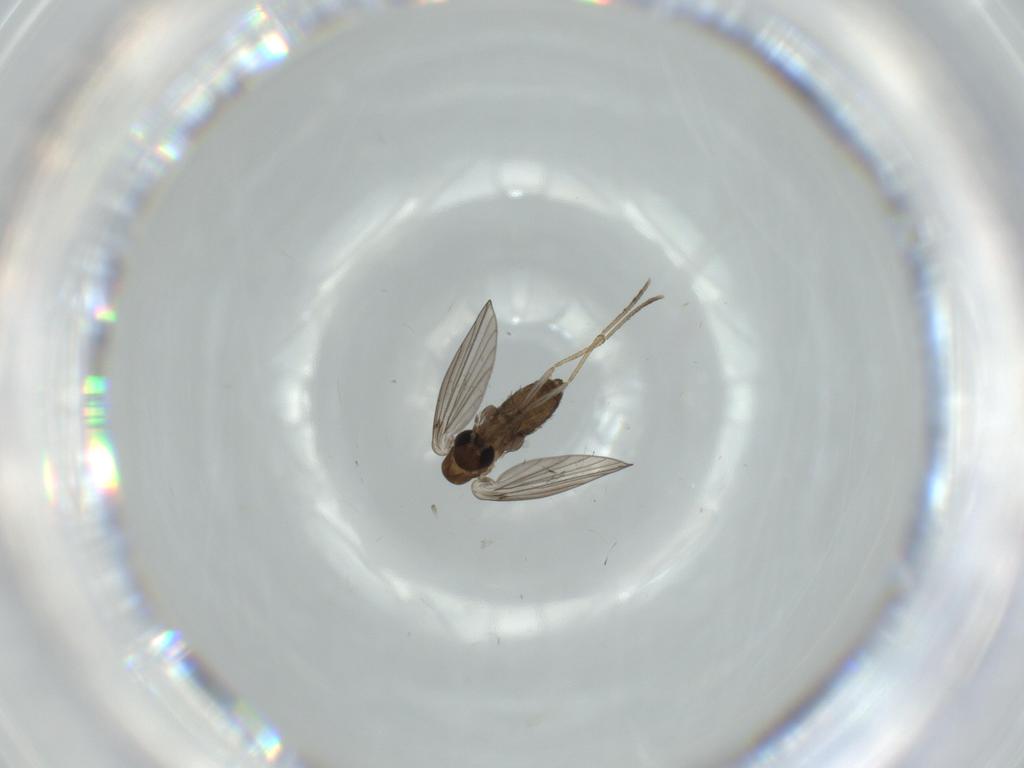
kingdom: Animalia
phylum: Arthropoda
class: Insecta
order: Diptera
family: Psychodidae
